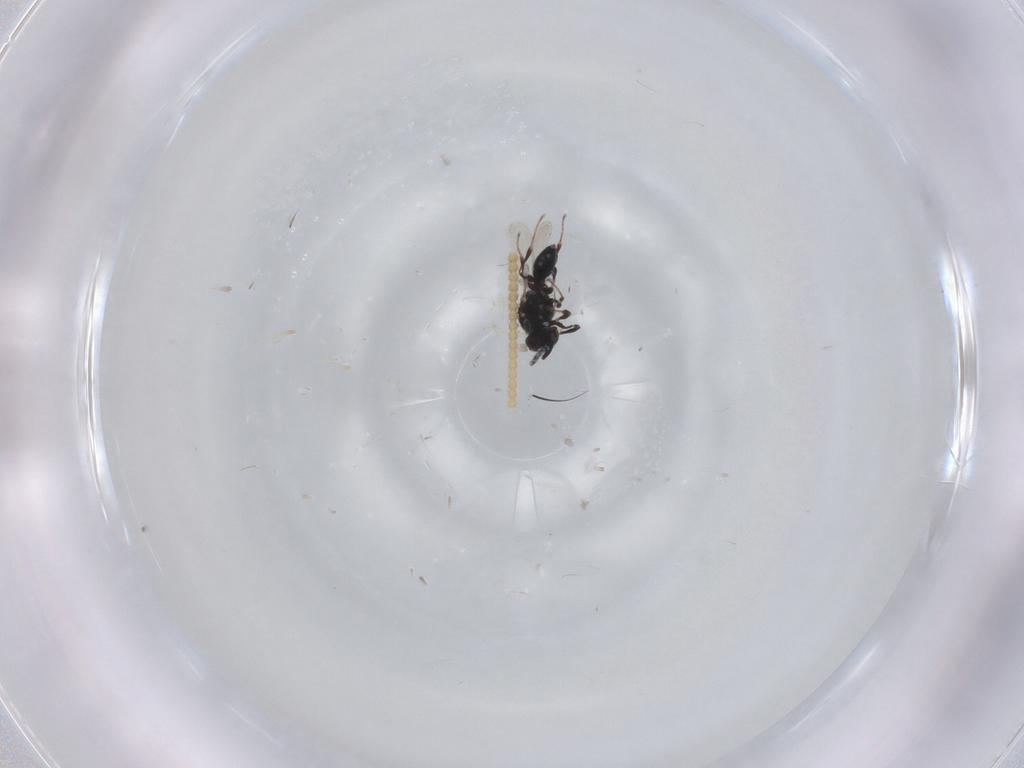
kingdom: Animalia
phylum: Arthropoda
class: Insecta
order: Hymenoptera
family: Platygastridae
